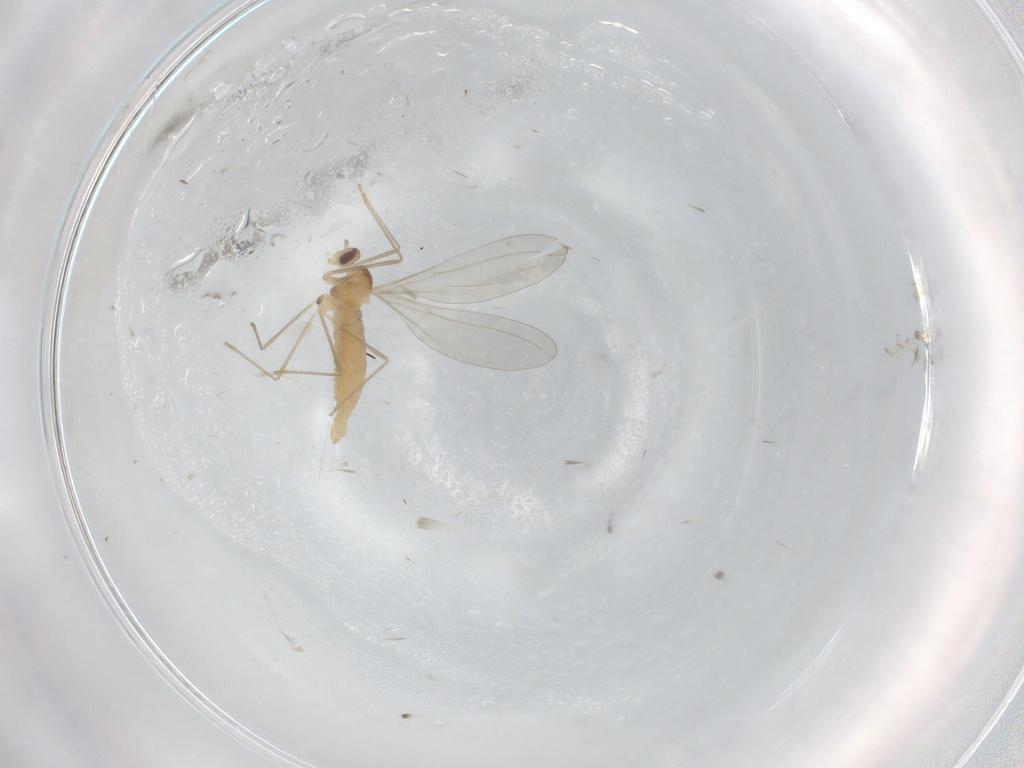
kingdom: Animalia
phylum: Arthropoda
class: Insecta
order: Diptera
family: Cecidomyiidae
